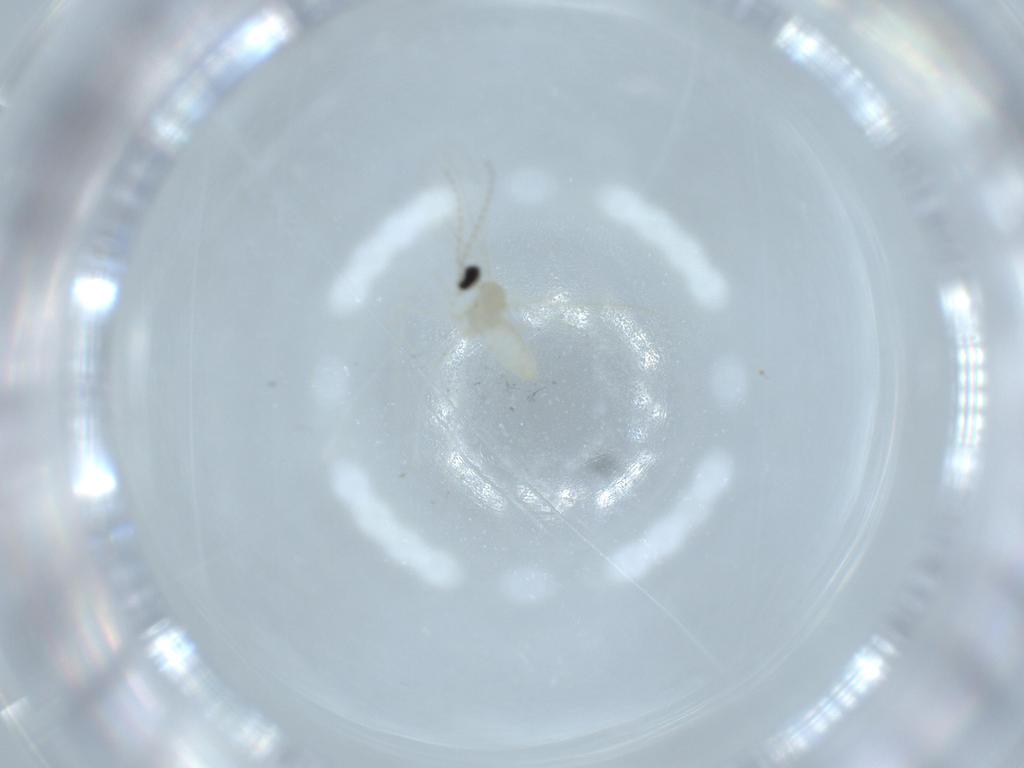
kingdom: Animalia
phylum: Arthropoda
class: Insecta
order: Diptera
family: Cecidomyiidae
